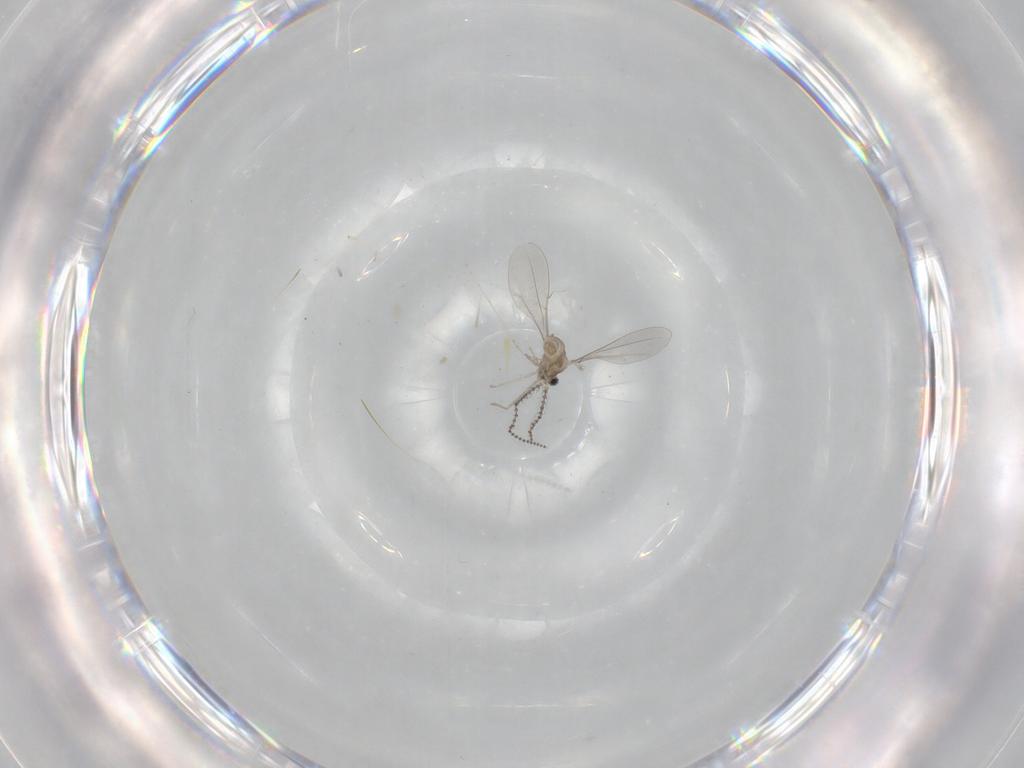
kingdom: Animalia
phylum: Arthropoda
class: Insecta
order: Diptera
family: Cecidomyiidae
